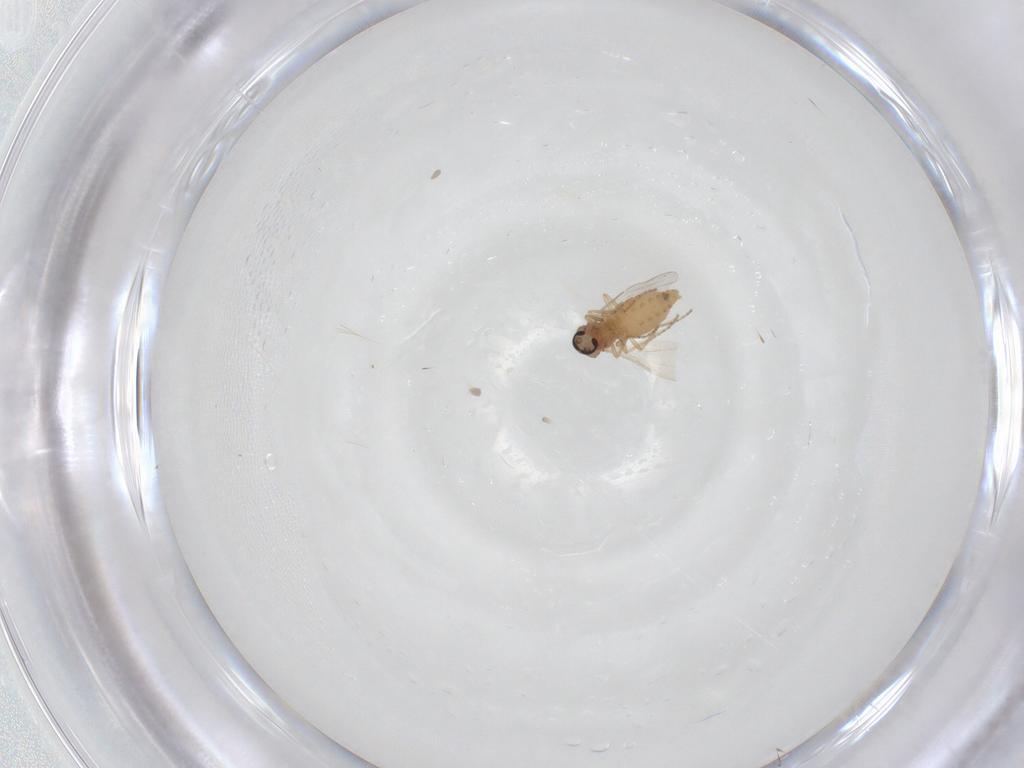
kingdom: Animalia
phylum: Arthropoda
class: Insecta
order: Diptera
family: Ceratopogonidae
